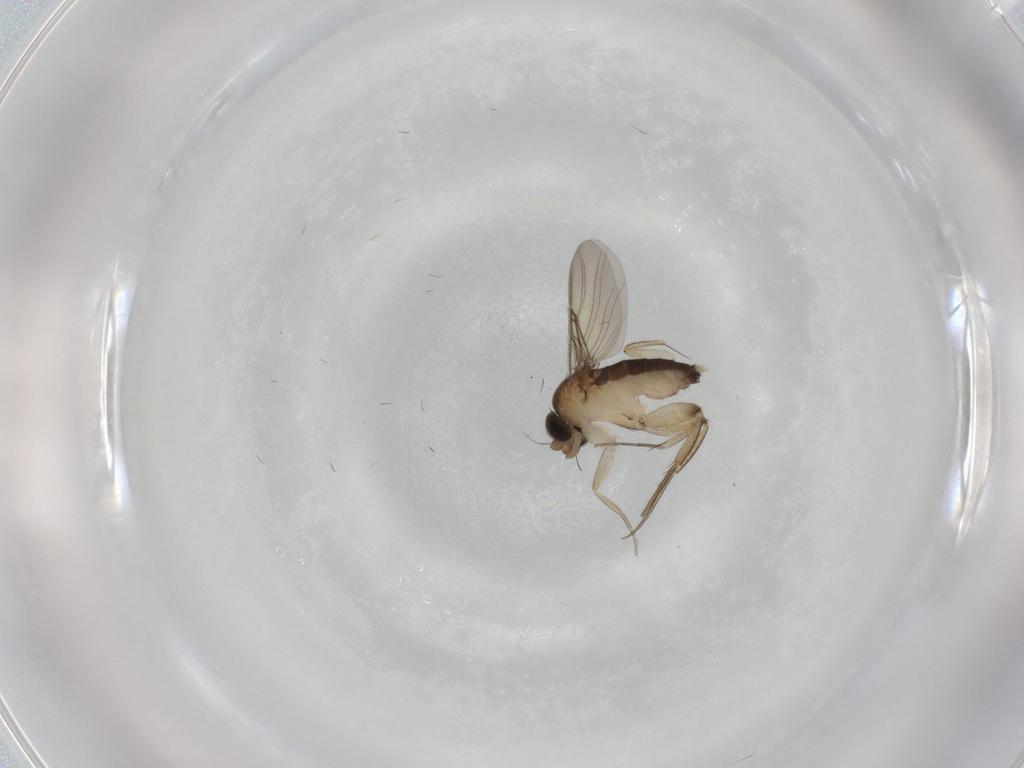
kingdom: Animalia
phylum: Arthropoda
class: Insecta
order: Diptera
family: Phoridae
